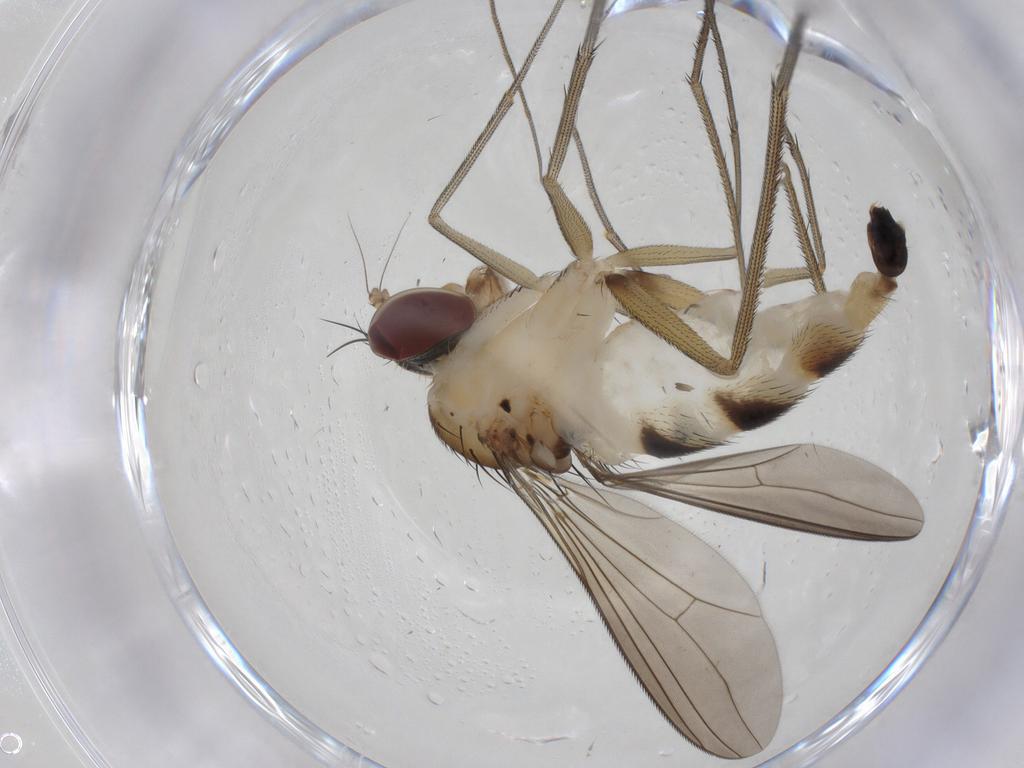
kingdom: Animalia
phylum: Arthropoda
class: Insecta
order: Diptera
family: Dolichopodidae
